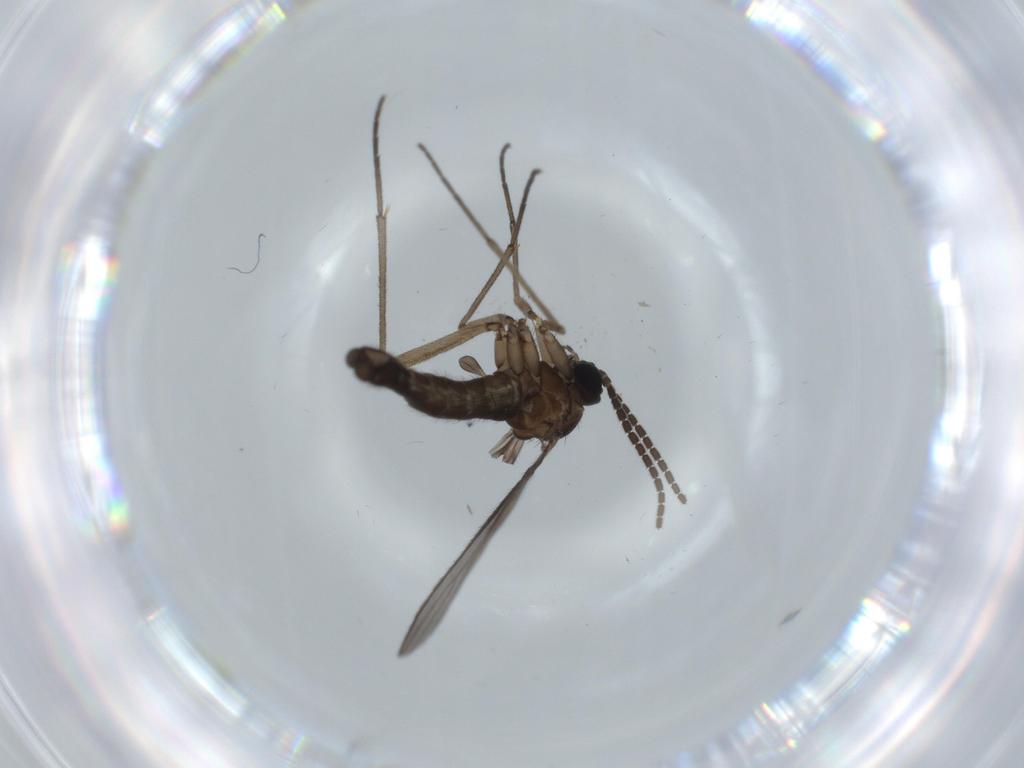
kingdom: Animalia
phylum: Arthropoda
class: Insecta
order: Diptera
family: Sciaridae
